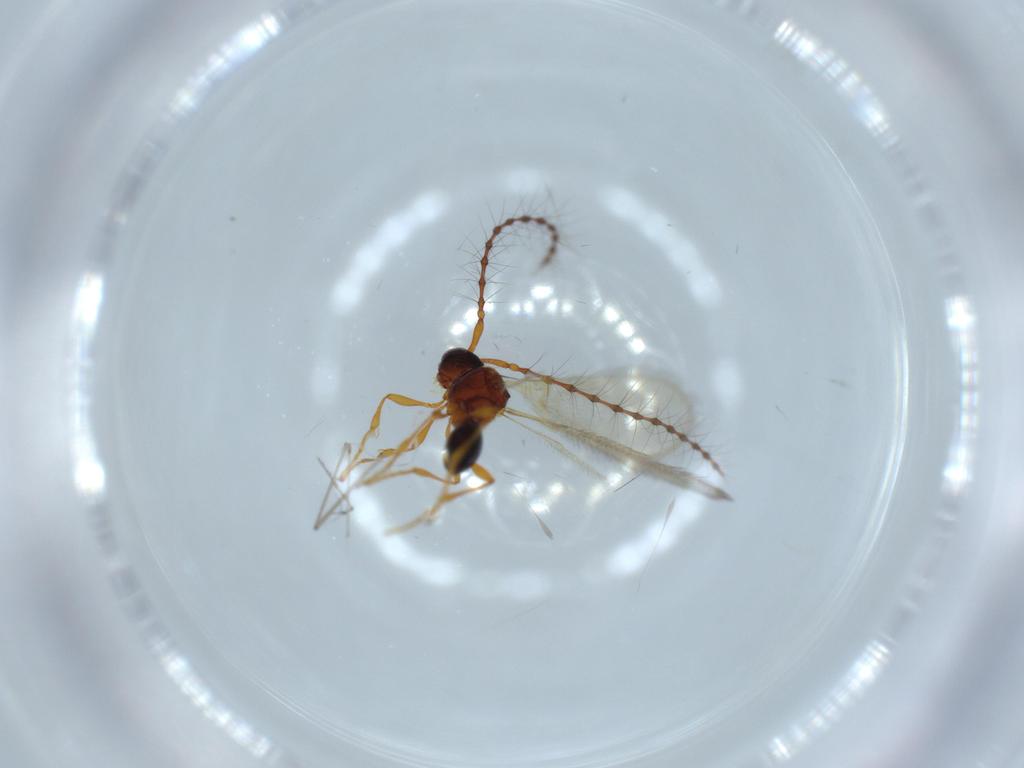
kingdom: Animalia
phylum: Arthropoda
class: Insecta
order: Hymenoptera
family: Diapriidae
